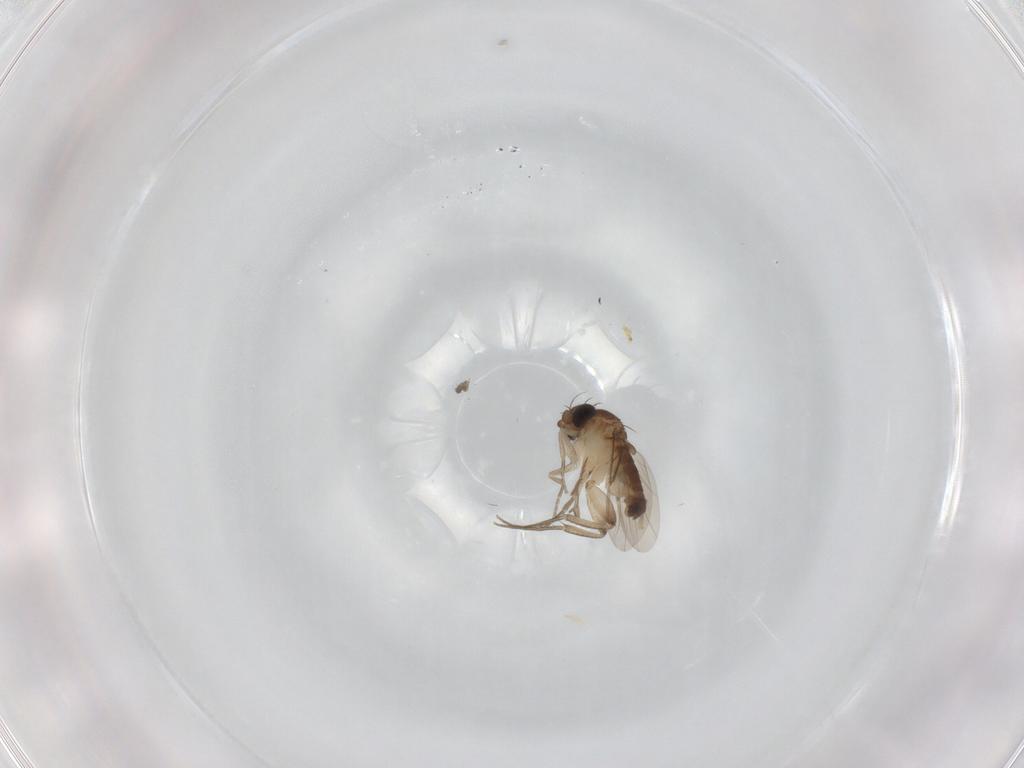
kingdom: Animalia
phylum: Arthropoda
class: Insecta
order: Diptera
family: Phoridae
